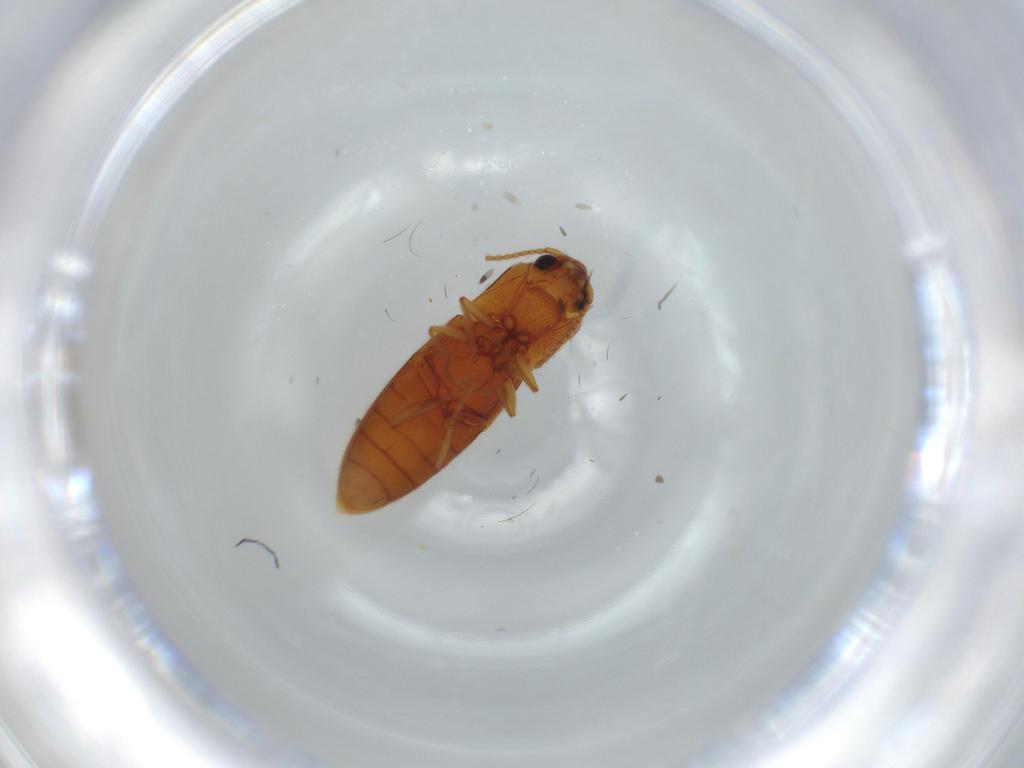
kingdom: Animalia
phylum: Arthropoda
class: Insecta
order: Coleoptera
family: Elateridae
